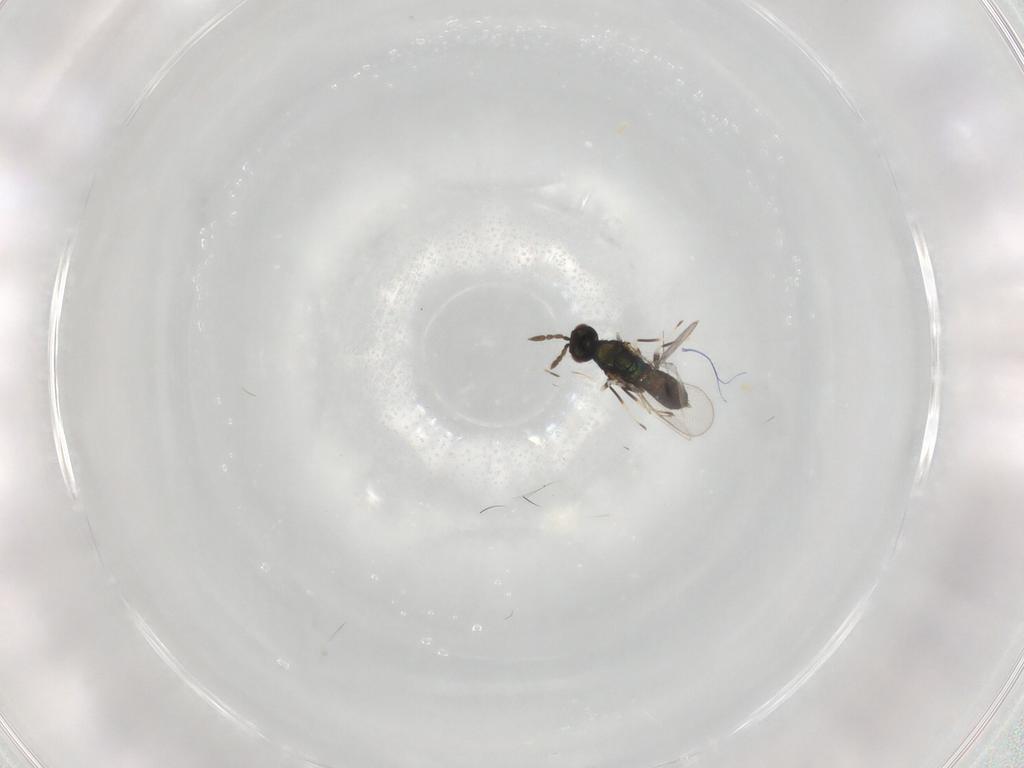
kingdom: Animalia
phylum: Arthropoda
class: Insecta
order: Hymenoptera
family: Eulophidae
